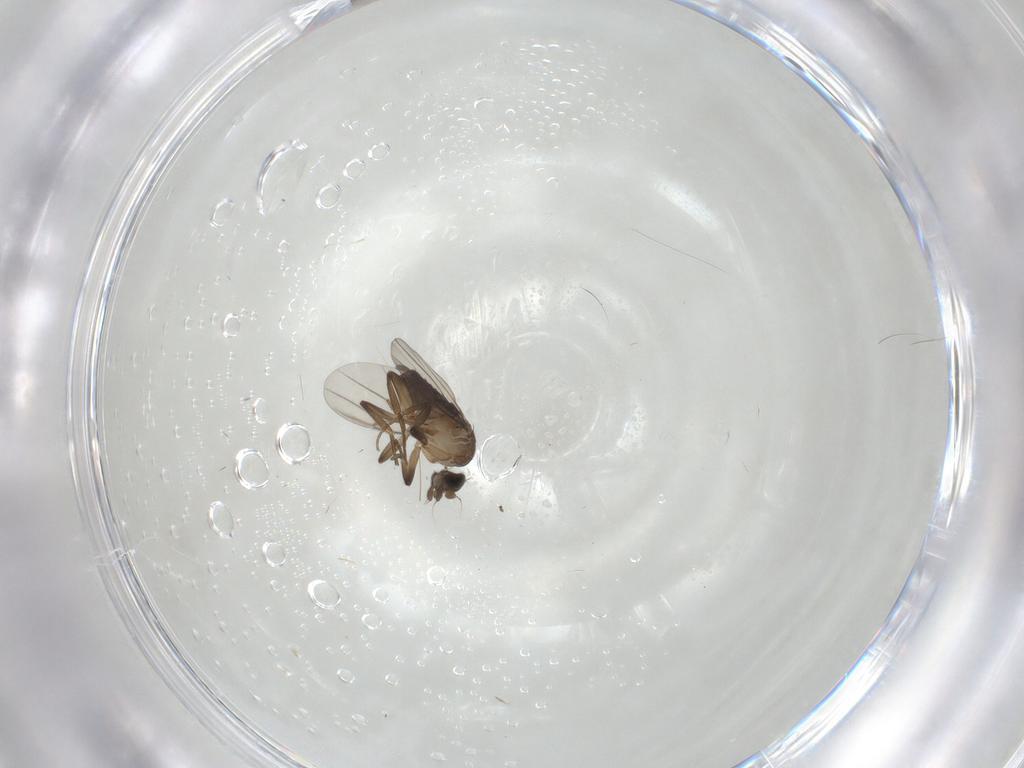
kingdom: Animalia
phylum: Arthropoda
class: Insecta
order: Diptera
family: Phoridae
